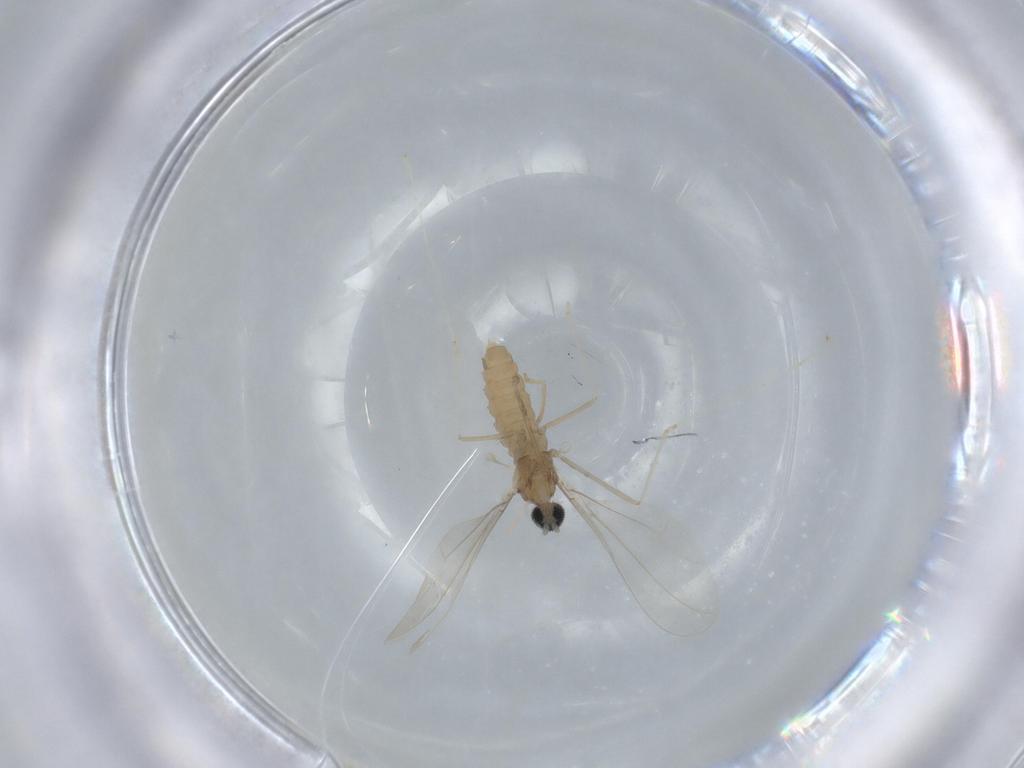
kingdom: Animalia
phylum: Arthropoda
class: Insecta
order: Diptera
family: Cecidomyiidae
